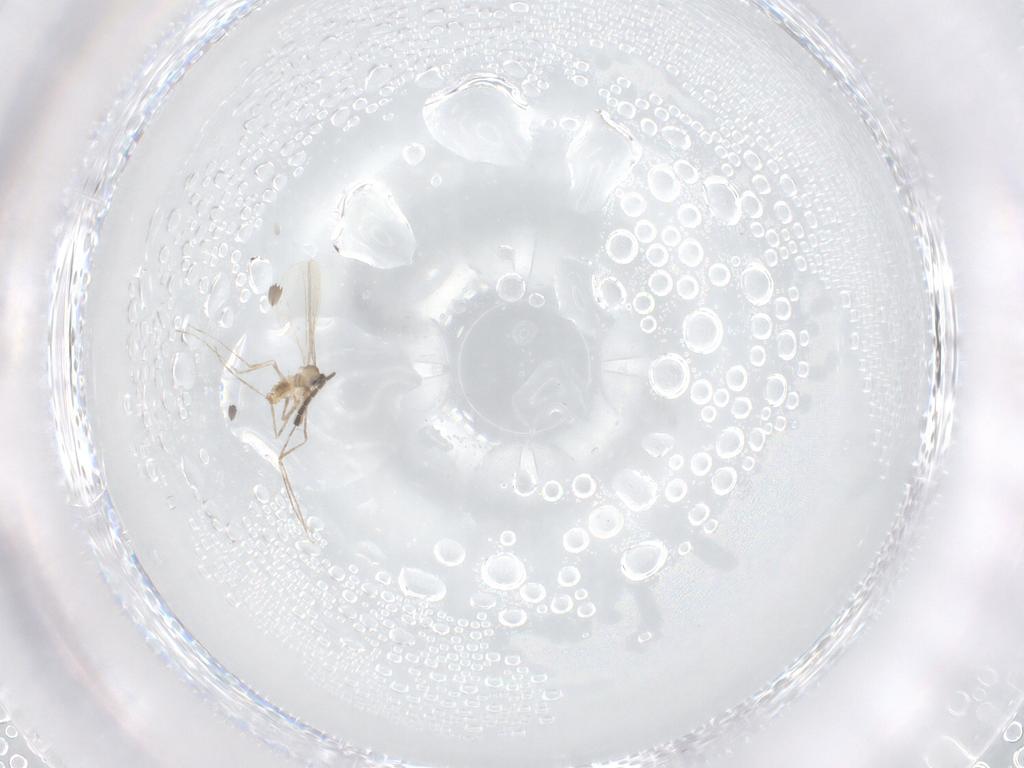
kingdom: Animalia
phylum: Arthropoda
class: Insecta
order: Diptera
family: Sciaridae
